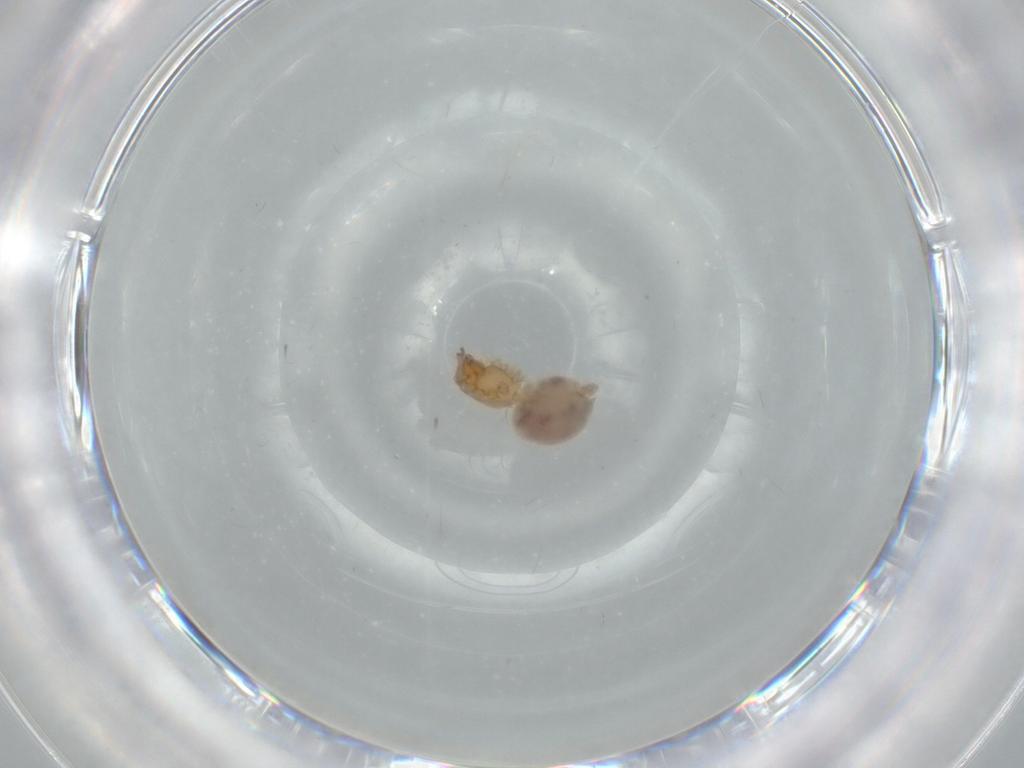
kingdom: Animalia
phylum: Arthropoda
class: Arachnida
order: Araneae
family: Oonopidae
